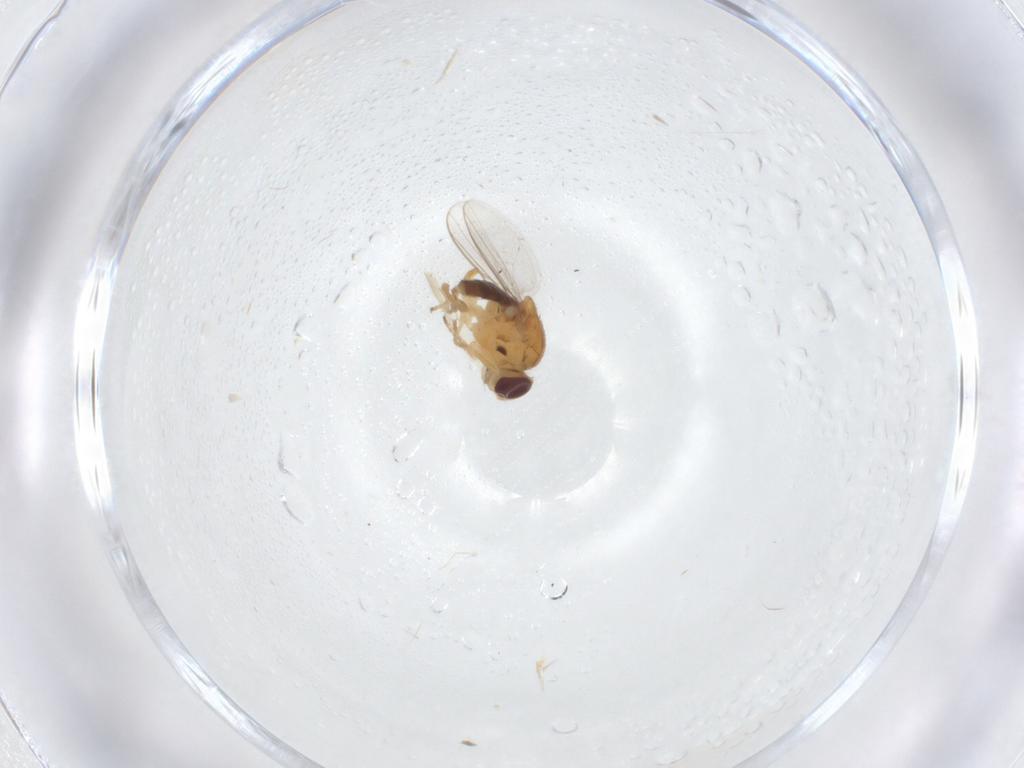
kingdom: Animalia
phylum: Arthropoda
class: Insecta
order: Diptera
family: Chloropidae
